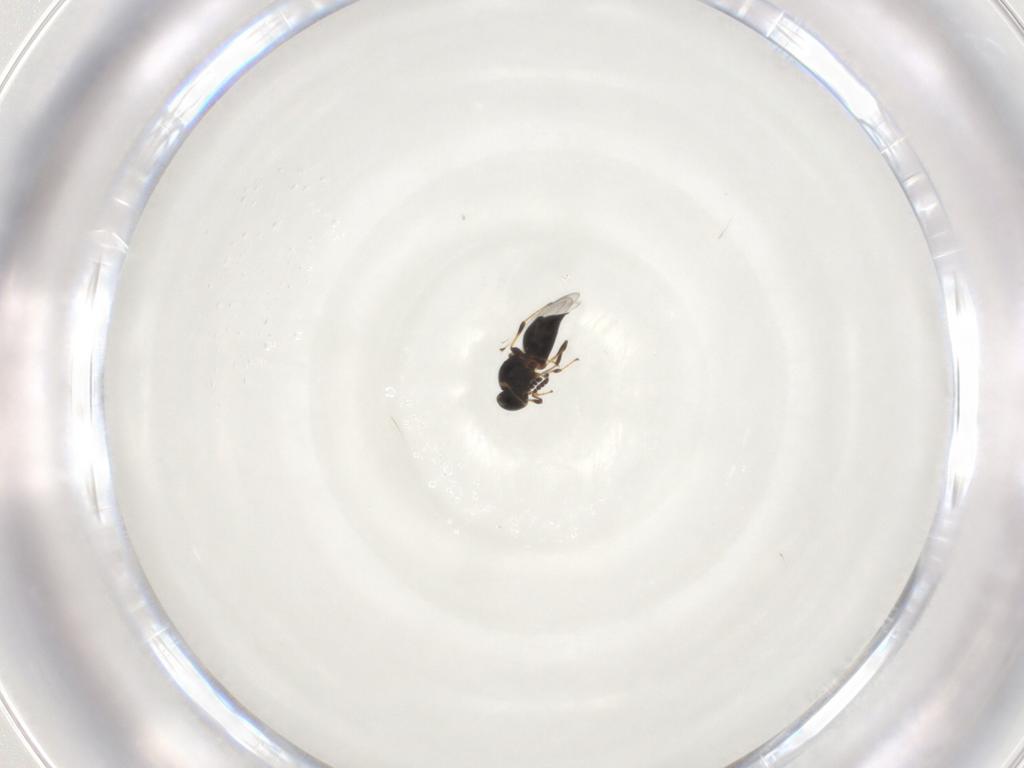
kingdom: Animalia
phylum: Arthropoda
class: Insecta
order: Hymenoptera
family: Platygastridae
